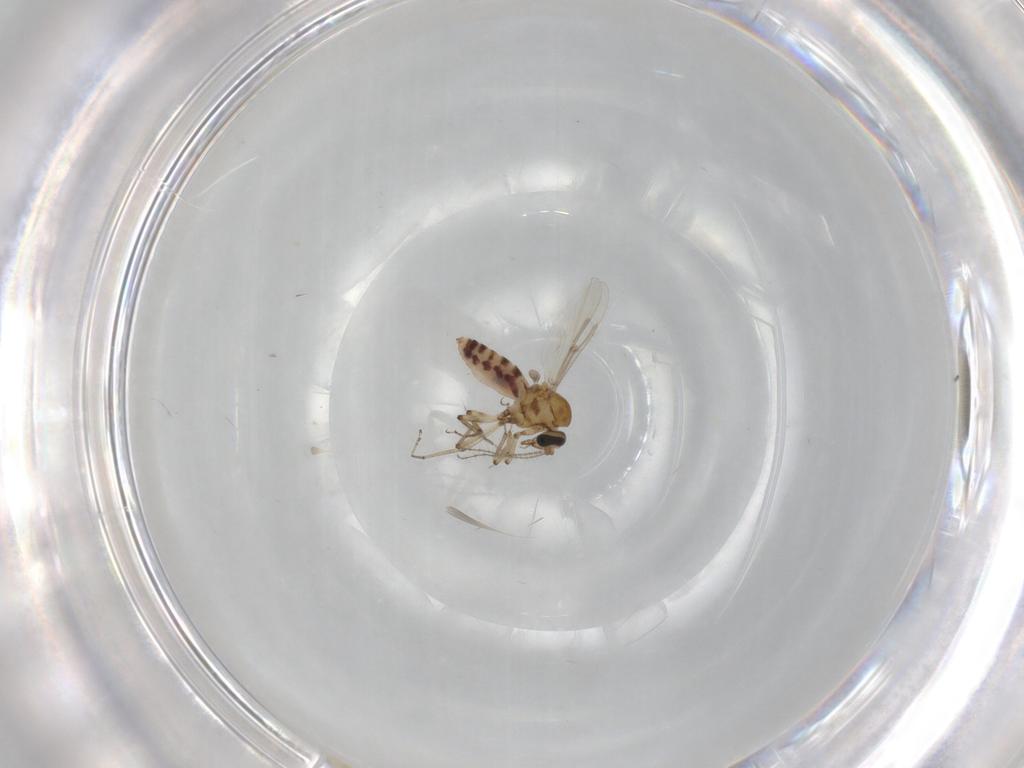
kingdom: Animalia
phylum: Arthropoda
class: Insecta
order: Diptera
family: Ceratopogonidae
